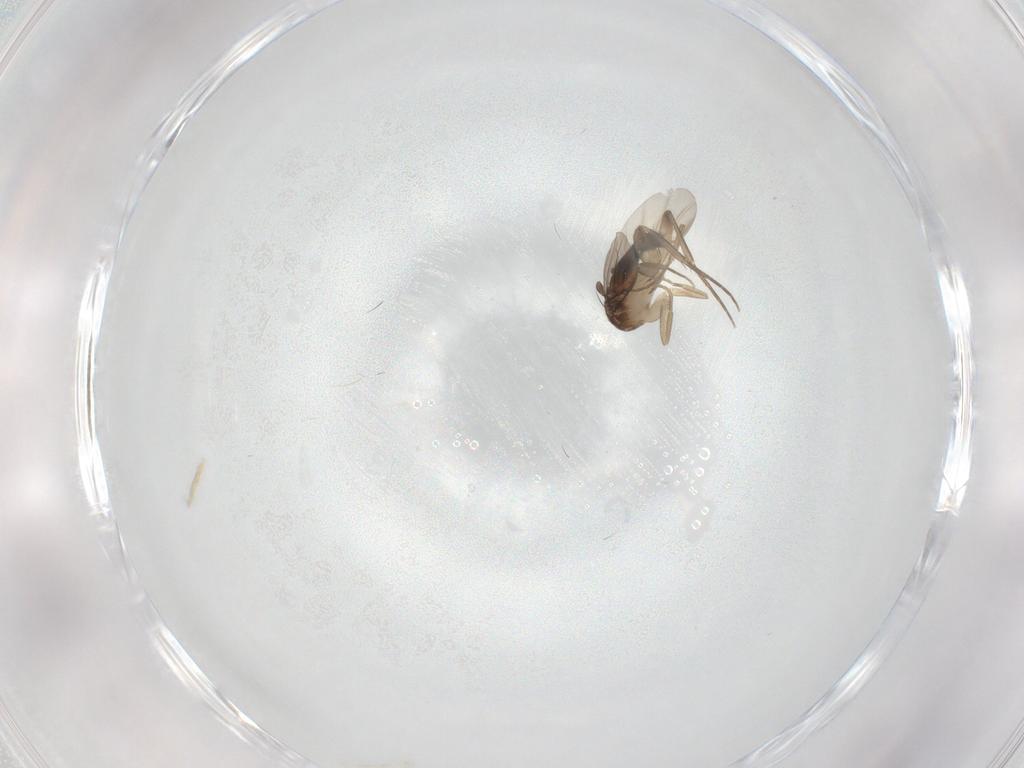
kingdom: Animalia
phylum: Arthropoda
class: Insecta
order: Diptera
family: Phoridae
